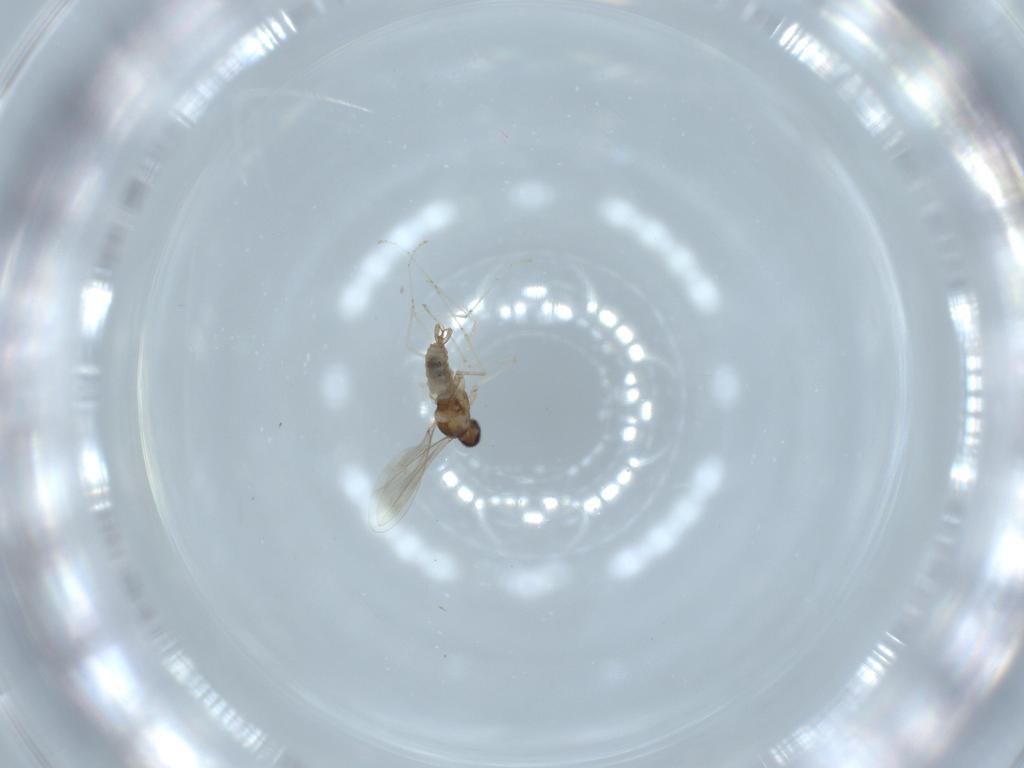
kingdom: Animalia
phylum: Arthropoda
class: Insecta
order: Diptera
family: Cecidomyiidae
